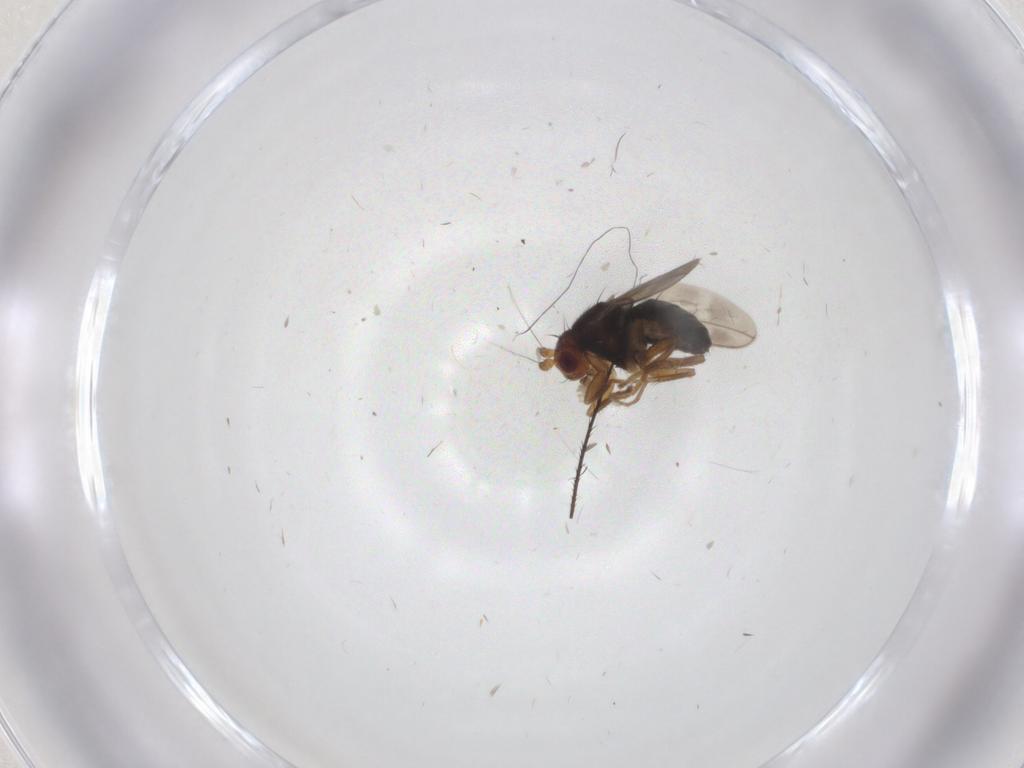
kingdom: Animalia
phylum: Arthropoda
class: Insecta
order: Diptera
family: Sphaeroceridae
